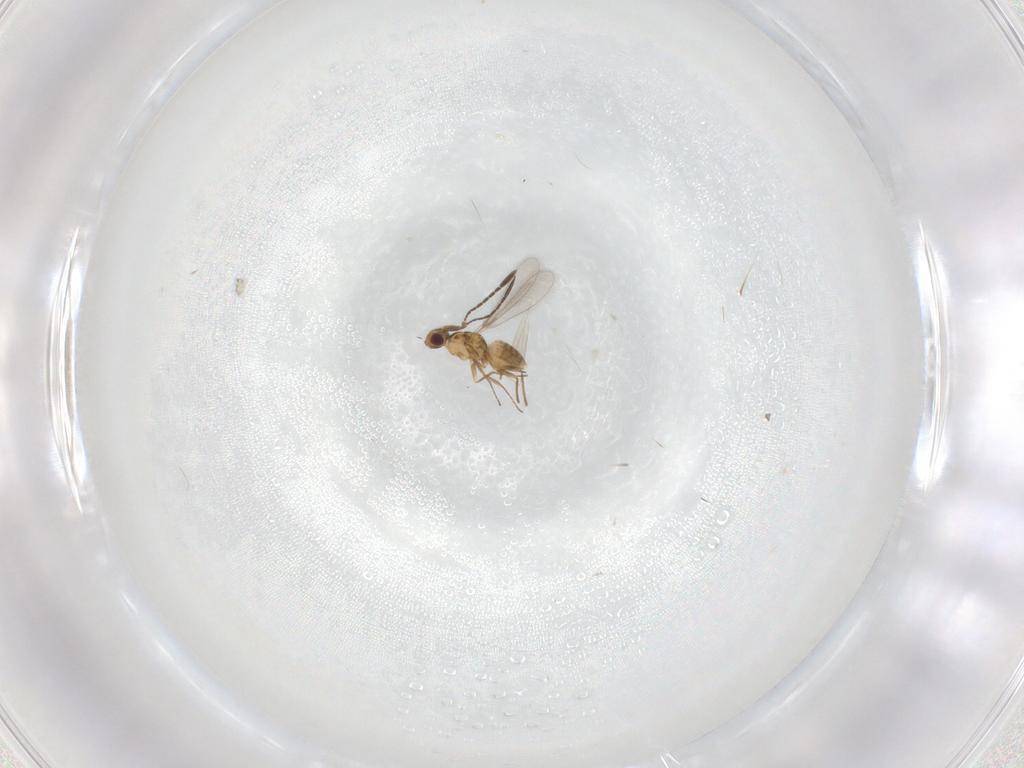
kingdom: Animalia
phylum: Arthropoda
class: Insecta
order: Hymenoptera
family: Mymaridae
